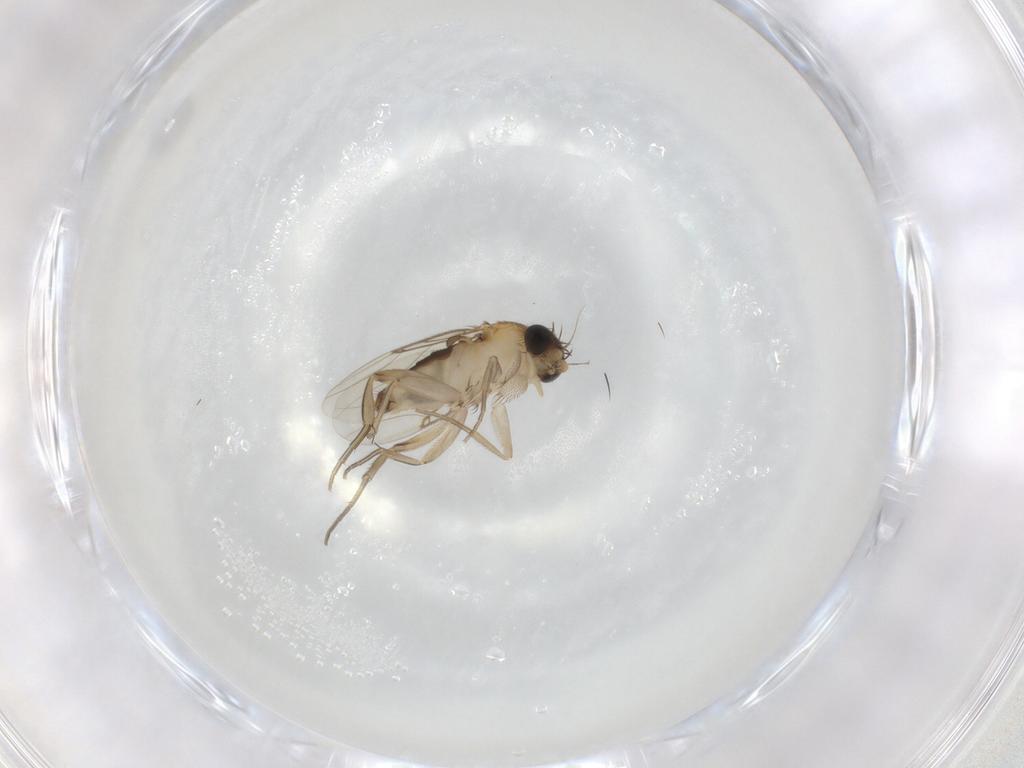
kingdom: Animalia
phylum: Arthropoda
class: Insecta
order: Diptera
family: Phoridae
